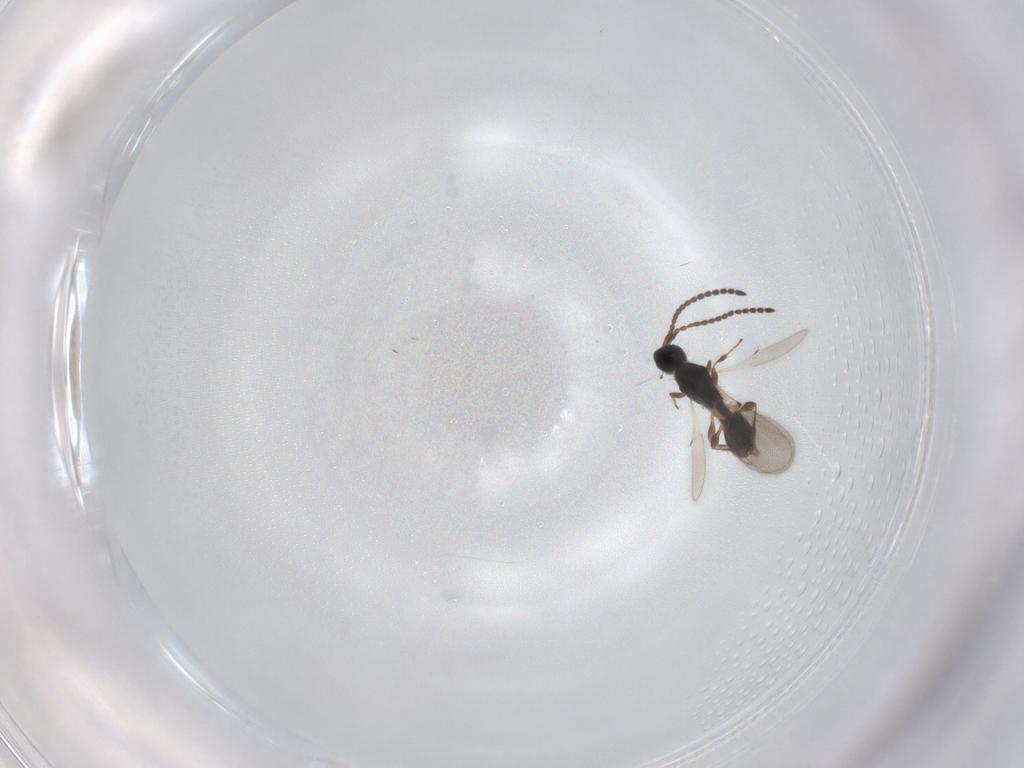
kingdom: Animalia
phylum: Arthropoda
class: Insecta
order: Hymenoptera
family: Diapriidae
